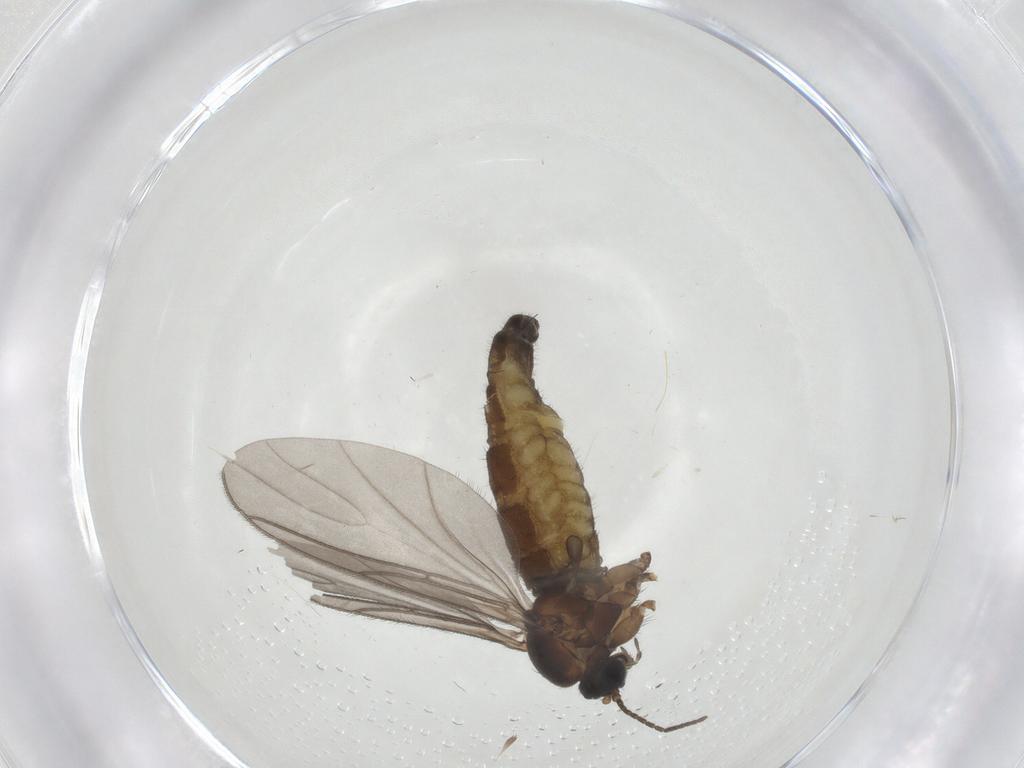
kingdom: Animalia
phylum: Arthropoda
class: Insecta
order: Diptera
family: Sciaridae
